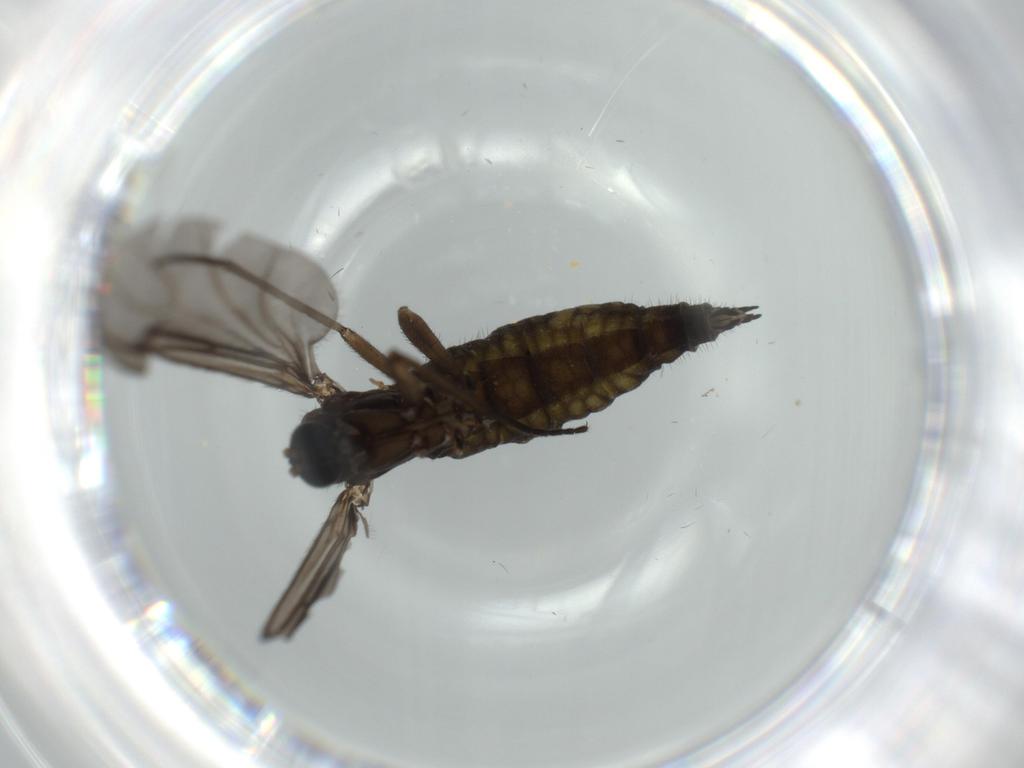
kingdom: Animalia
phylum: Arthropoda
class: Insecta
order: Diptera
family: Sciaridae
